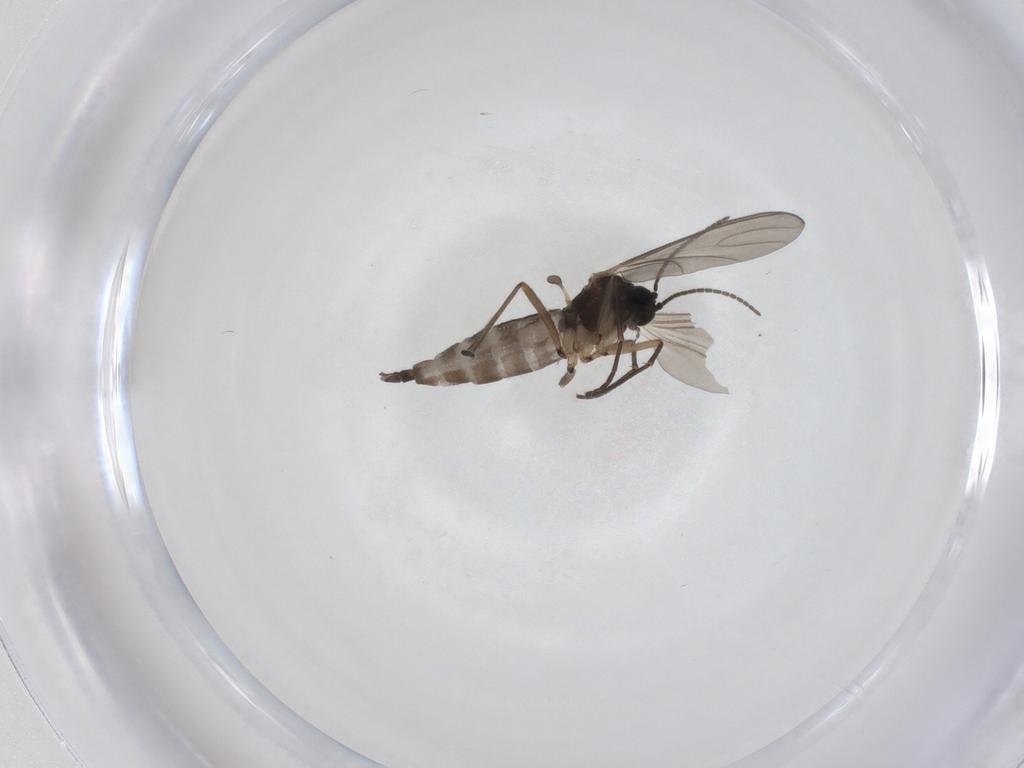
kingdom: Animalia
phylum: Arthropoda
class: Insecta
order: Diptera
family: Sciaridae
